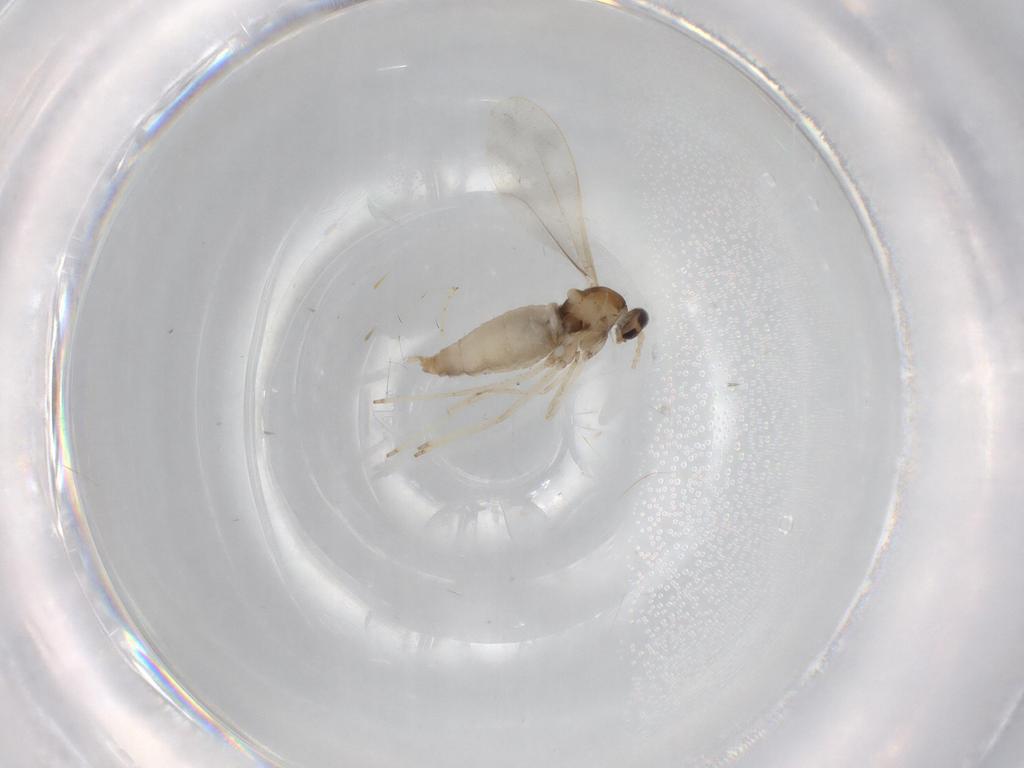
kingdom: Animalia
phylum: Arthropoda
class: Insecta
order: Diptera
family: Cecidomyiidae
